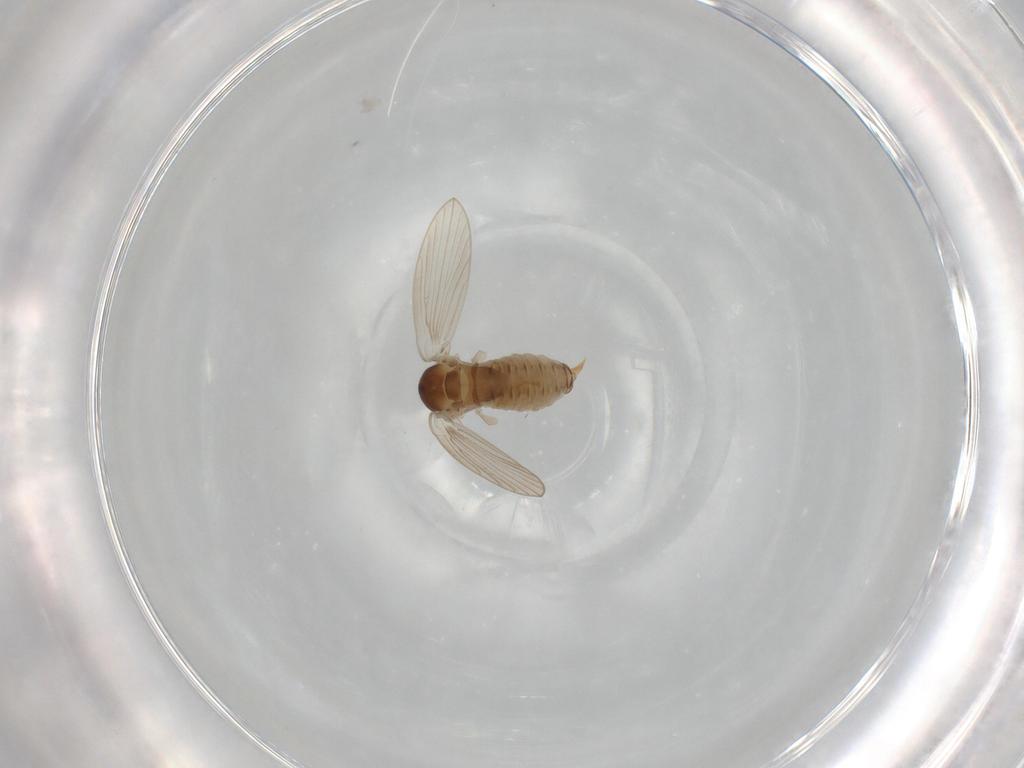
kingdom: Animalia
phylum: Arthropoda
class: Insecta
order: Diptera
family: Psychodidae
